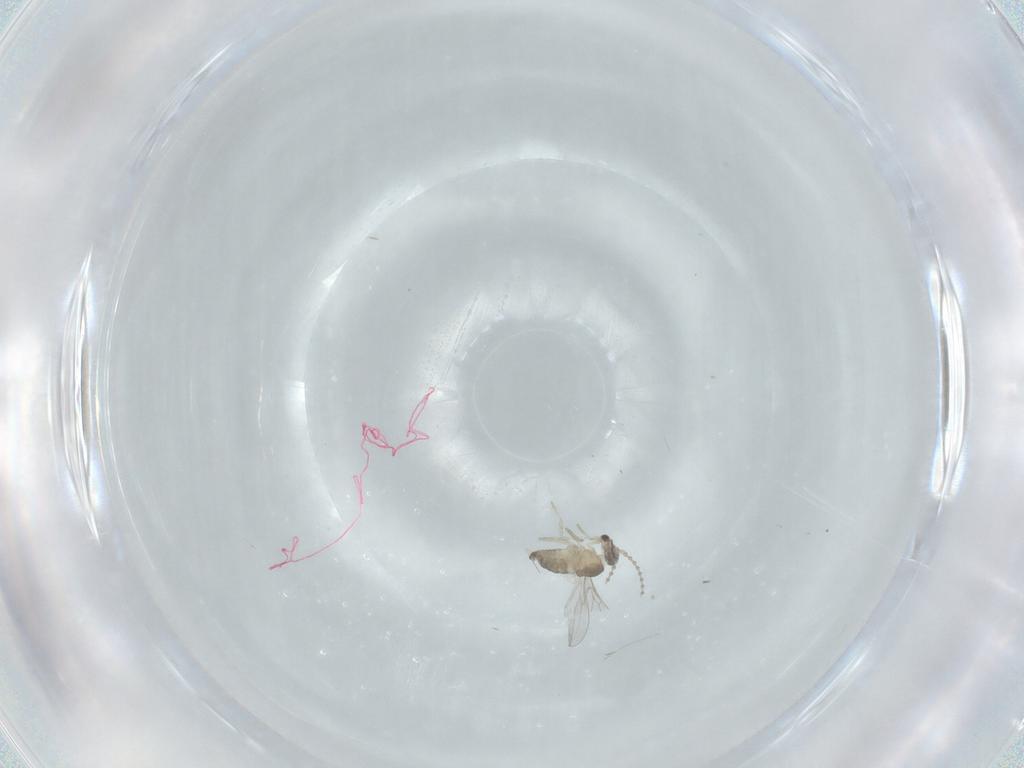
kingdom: Animalia
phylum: Arthropoda
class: Insecta
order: Diptera
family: Cecidomyiidae
